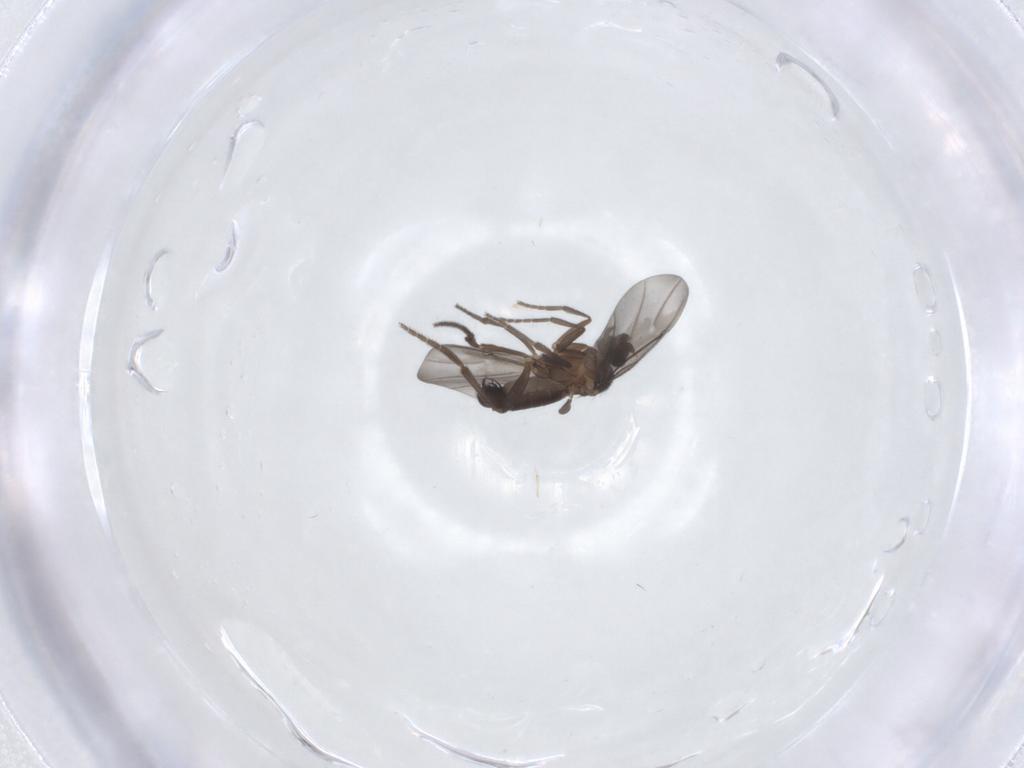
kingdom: Animalia
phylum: Arthropoda
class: Insecta
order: Diptera
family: Phoridae
